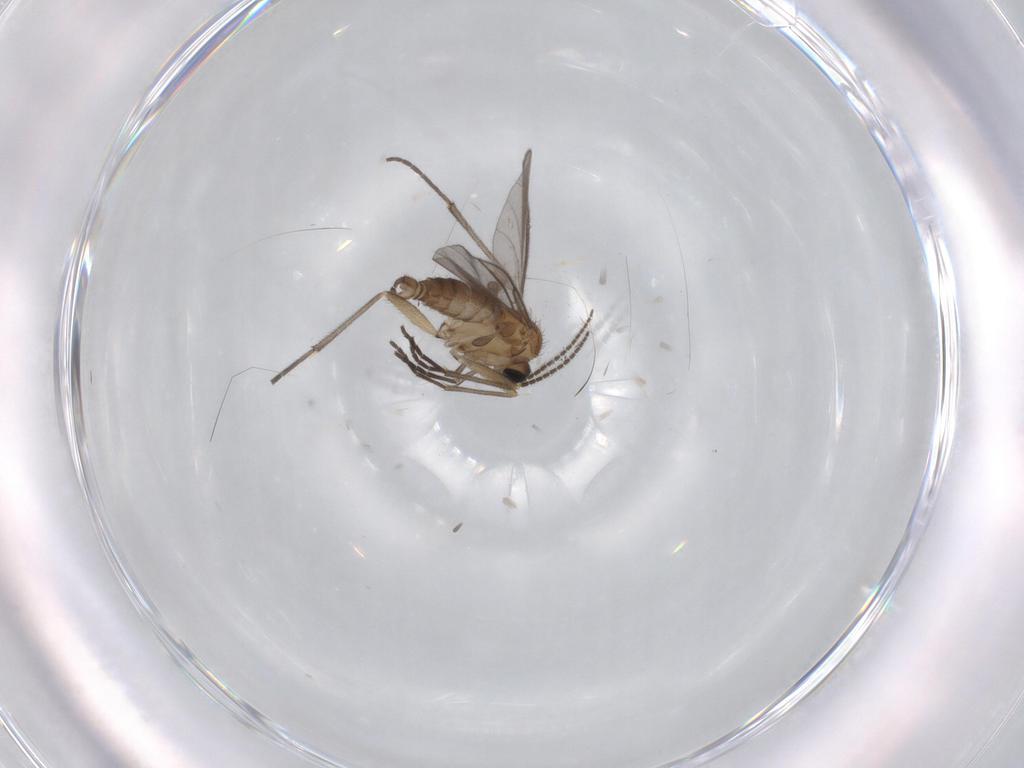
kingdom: Animalia
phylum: Arthropoda
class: Insecta
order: Diptera
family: Sciaridae
